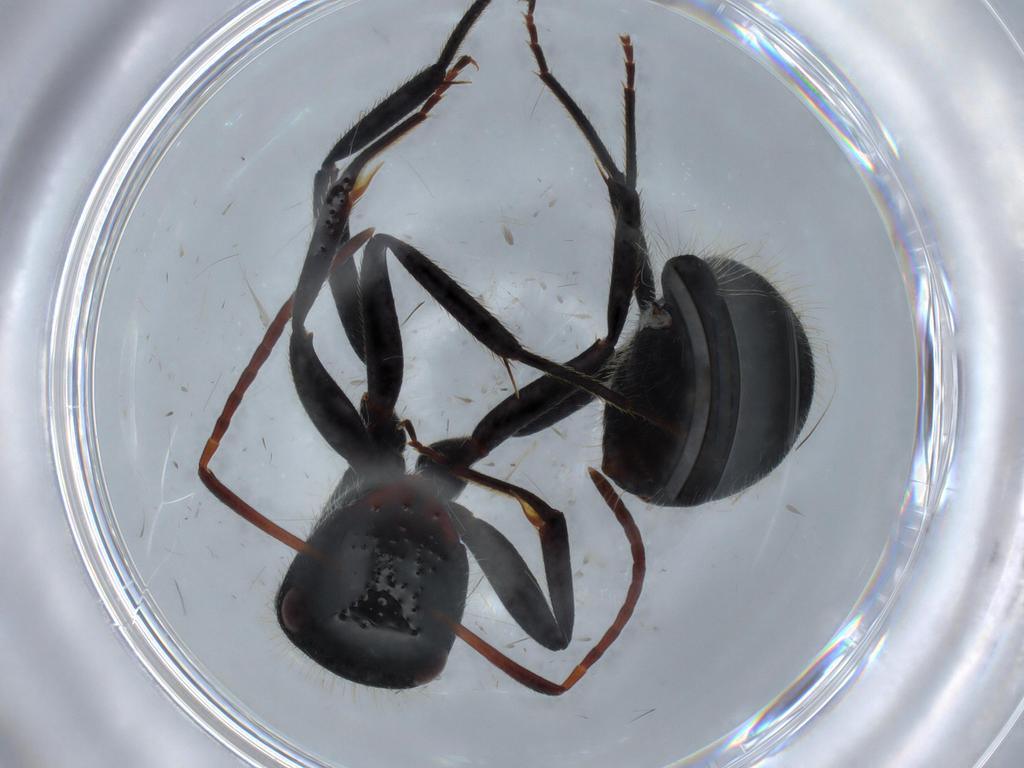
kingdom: Animalia
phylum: Arthropoda
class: Insecta
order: Hymenoptera
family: Formicidae
